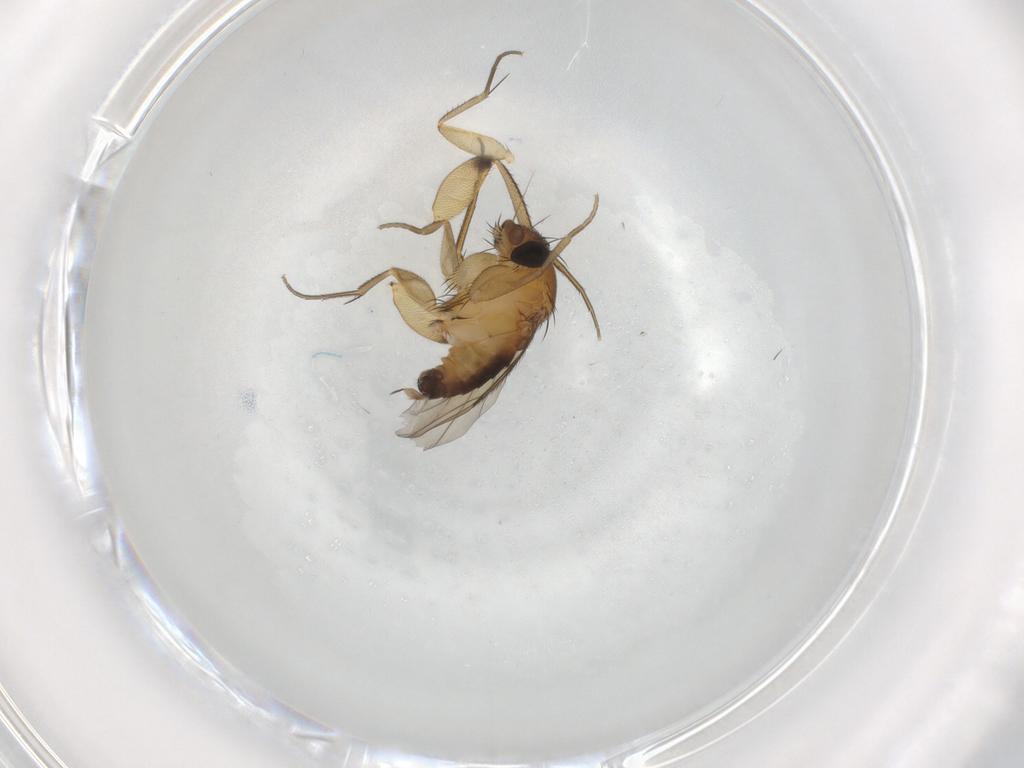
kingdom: Animalia
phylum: Arthropoda
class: Insecta
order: Diptera
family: Phoridae
